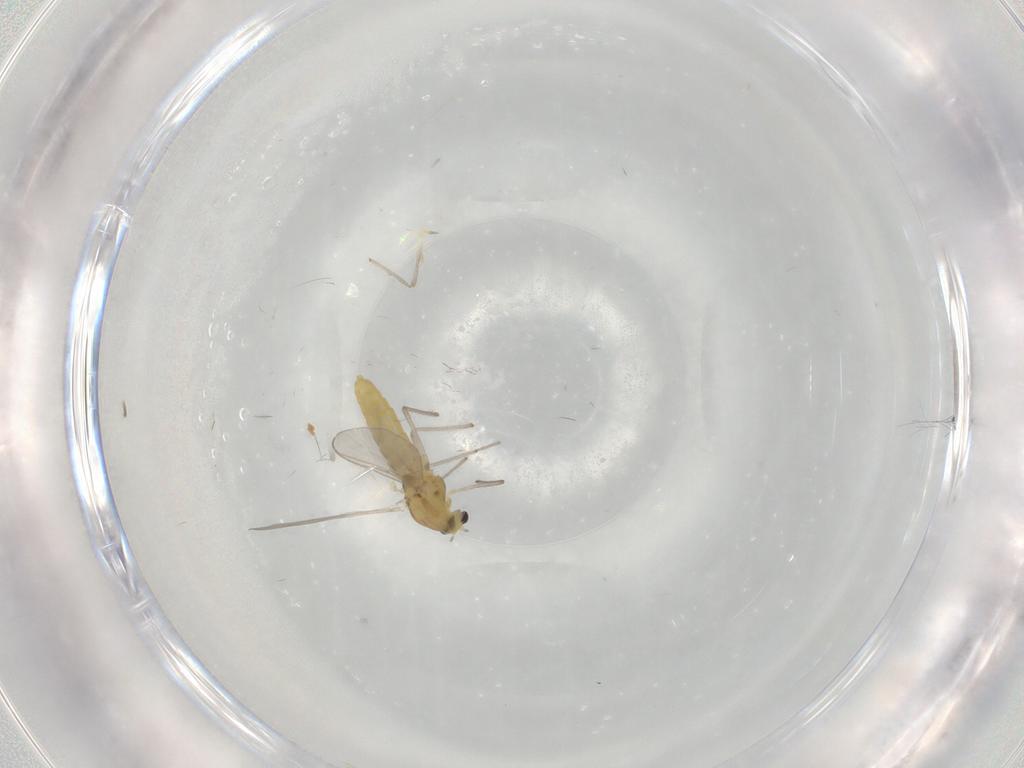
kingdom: Animalia
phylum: Arthropoda
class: Insecta
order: Diptera
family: Chironomidae
